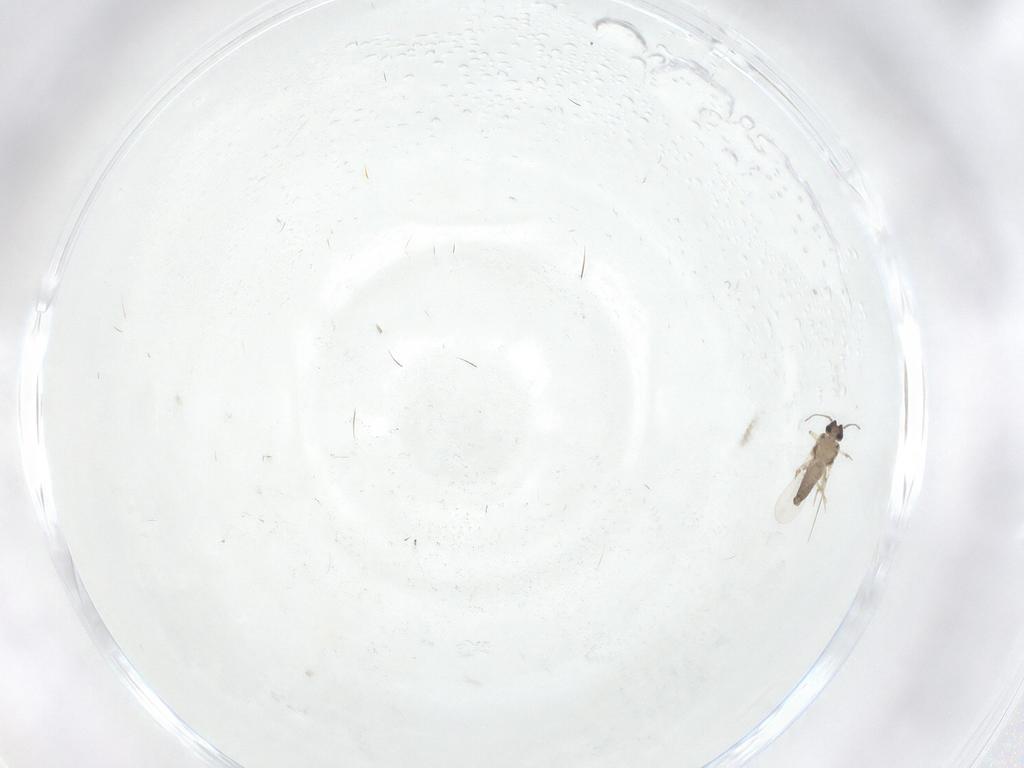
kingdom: Animalia
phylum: Arthropoda
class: Insecta
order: Diptera
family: Ceratopogonidae
